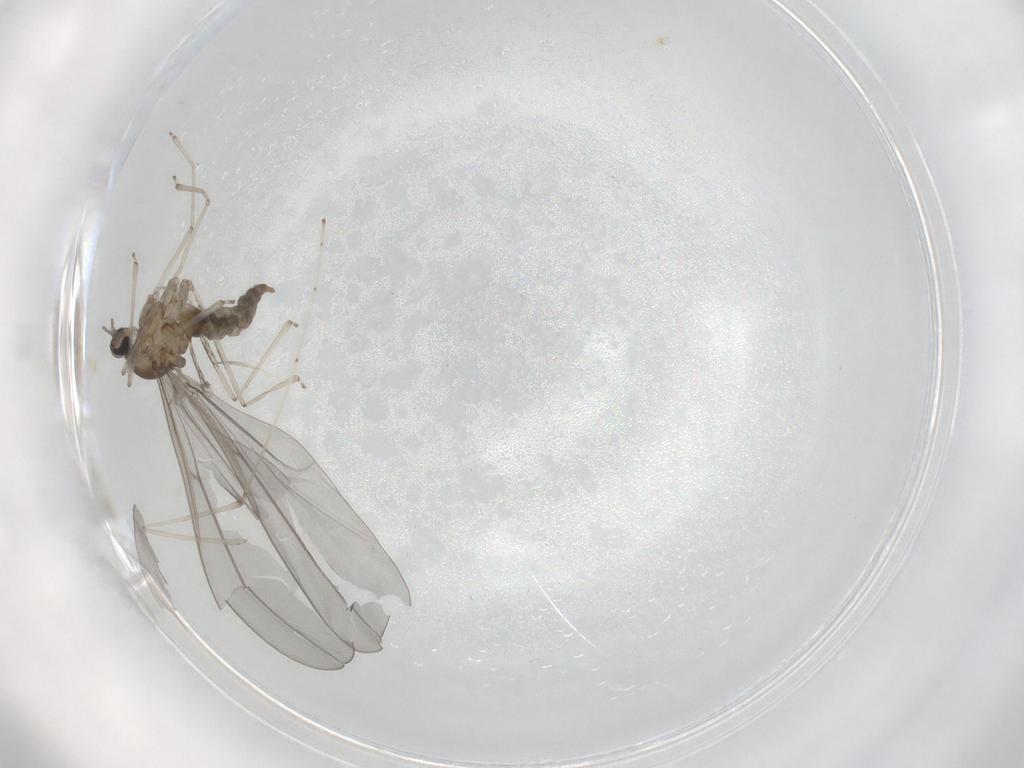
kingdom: Animalia
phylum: Arthropoda
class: Insecta
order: Diptera
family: Cecidomyiidae
